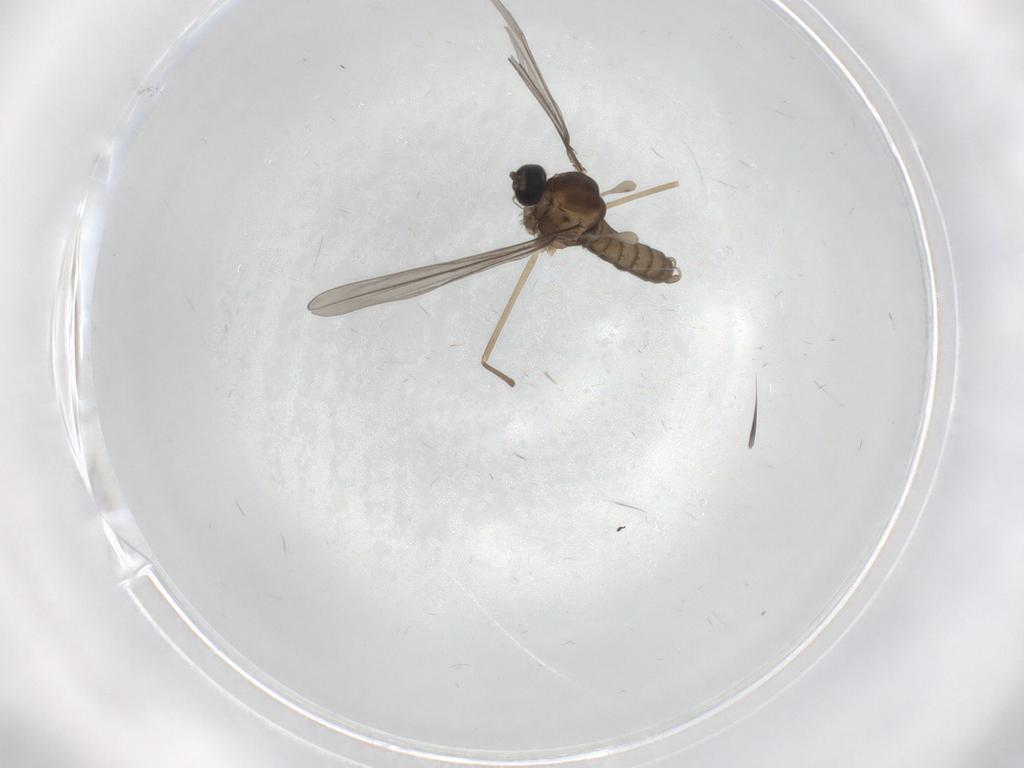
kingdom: Animalia
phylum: Arthropoda
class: Insecta
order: Diptera
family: Cecidomyiidae
